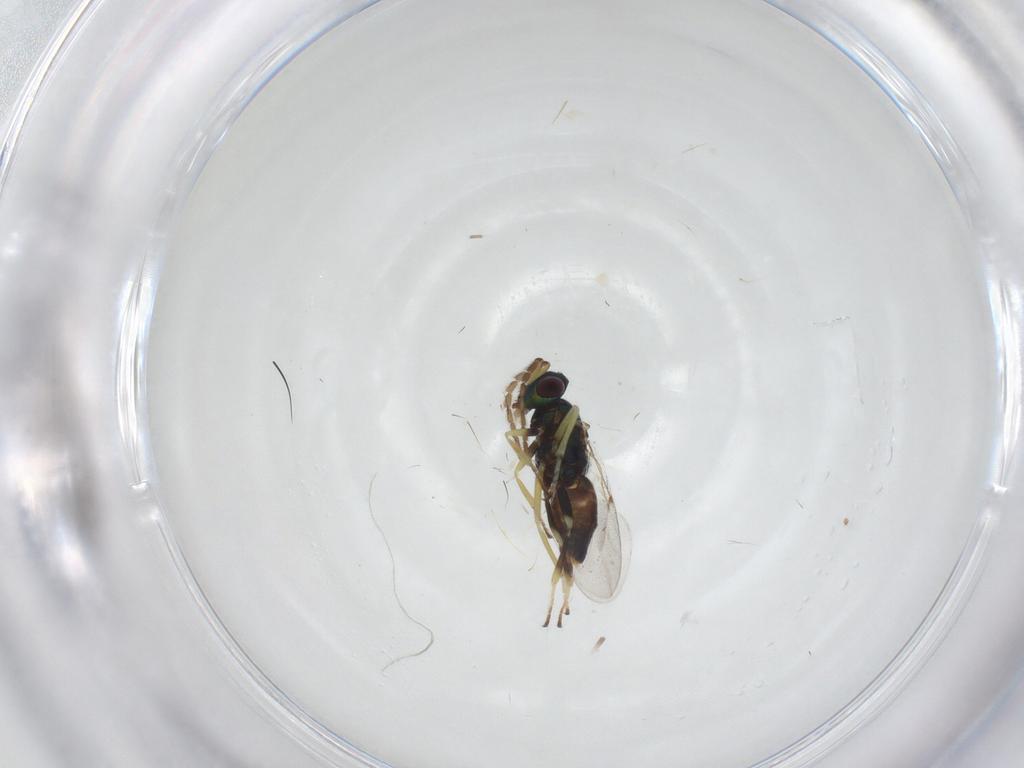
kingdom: Animalia
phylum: Arthropoda
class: Insecta
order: Hymenoptera
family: Encyrtidae
